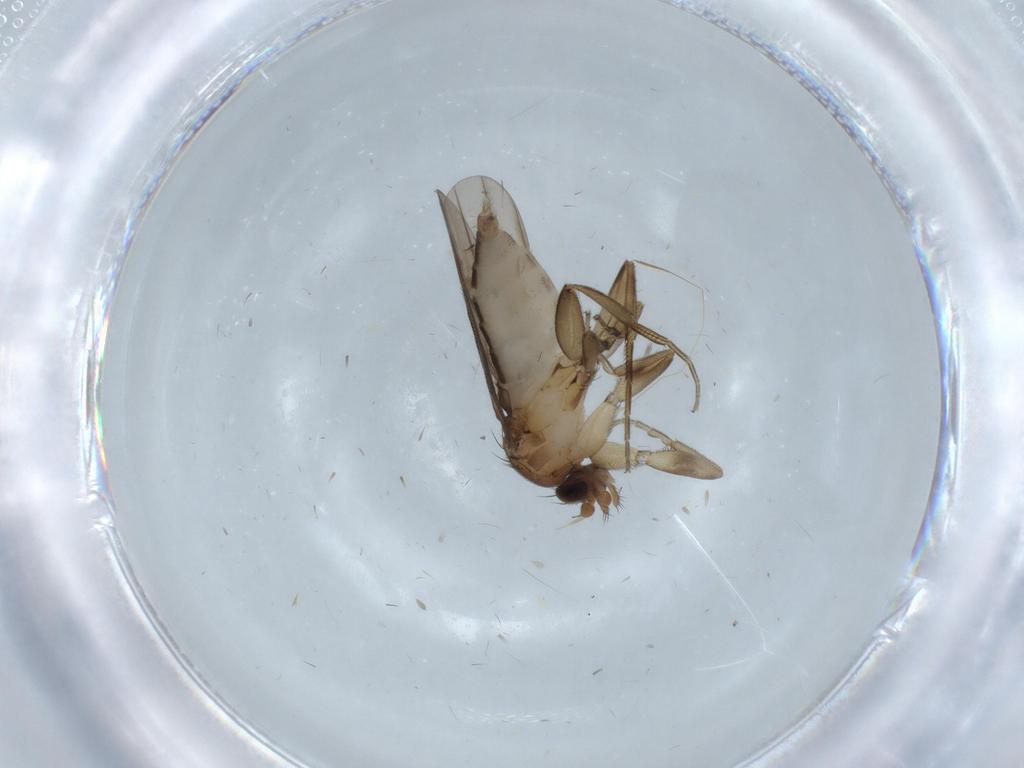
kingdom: Animalia
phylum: Arthropoda
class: Insecta
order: Diptera
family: Phoridae
